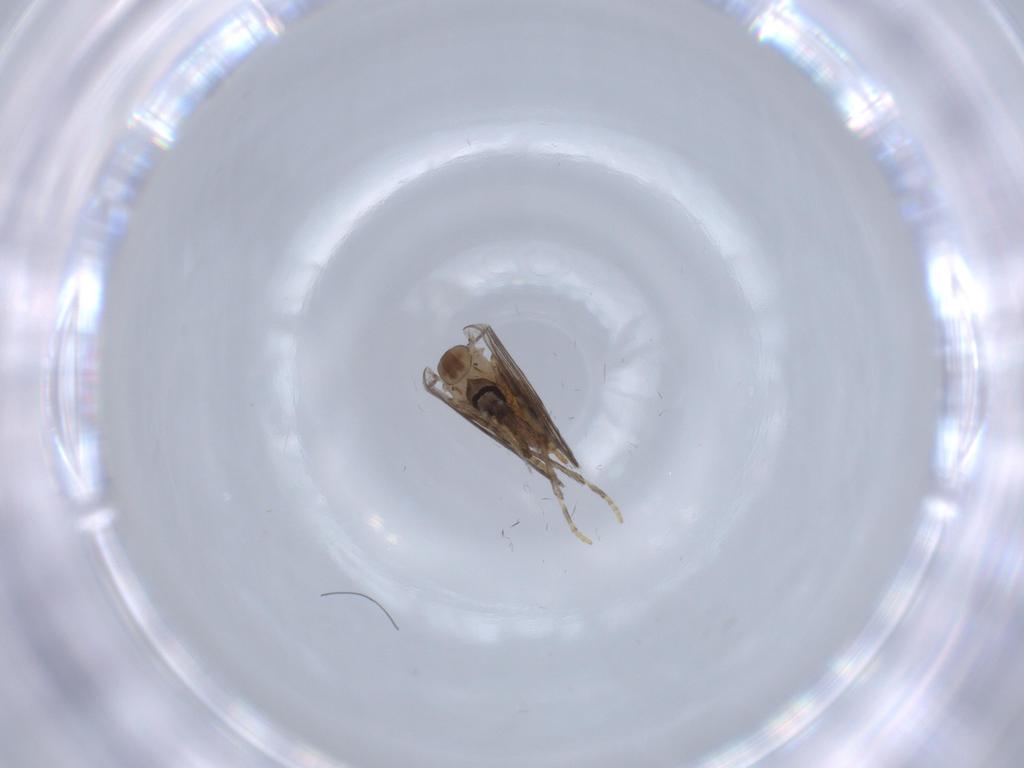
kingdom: Animalia
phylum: Arthropoda
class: Insecta
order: Diptera
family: Psychodidae
